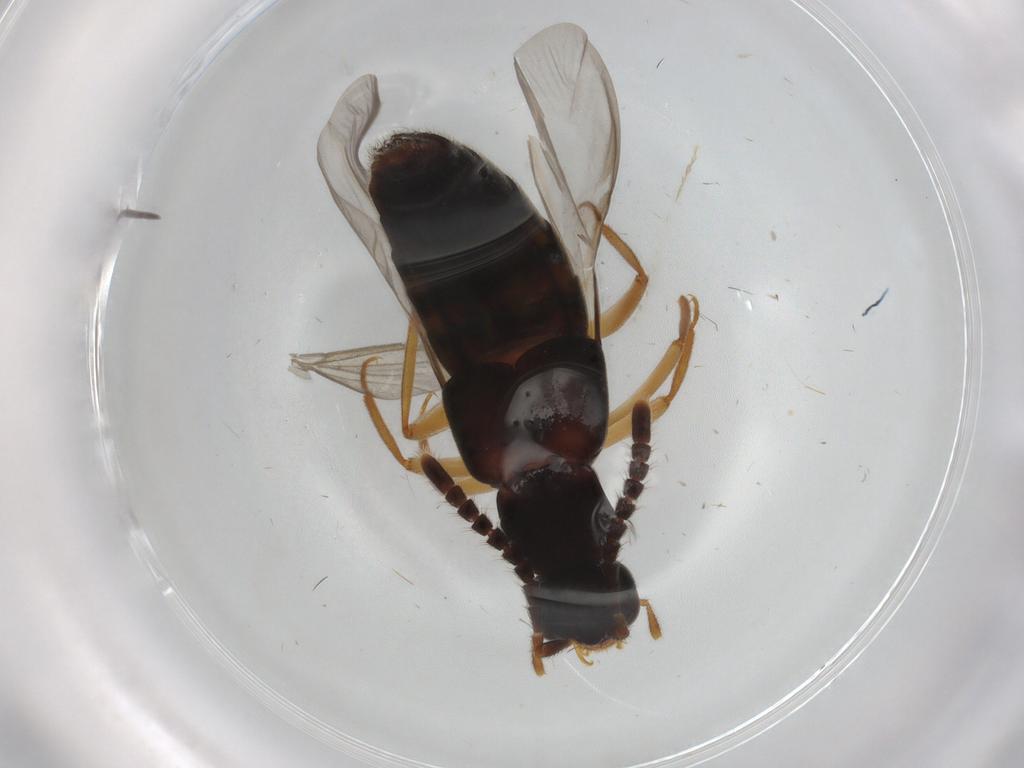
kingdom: Animalia
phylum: Arthropoda
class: Insecta
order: Coleoptera
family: Staphylinidae
